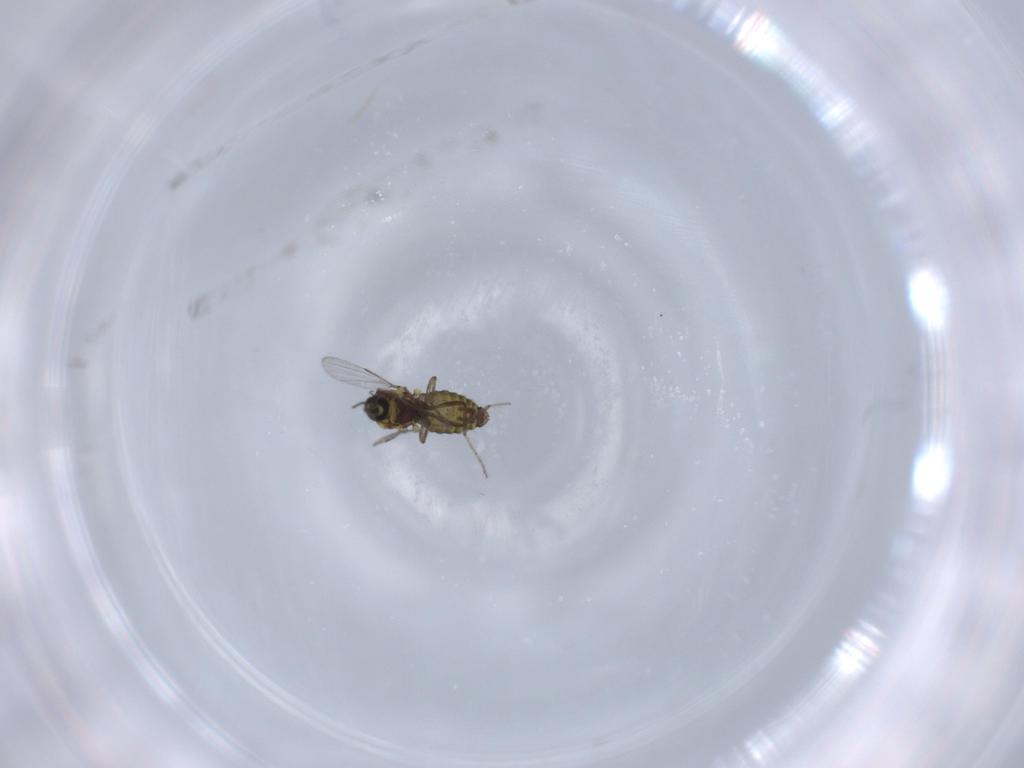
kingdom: Animalia
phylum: Arthropoda
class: Insecta
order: Diptera
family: Ceratopogonidae
